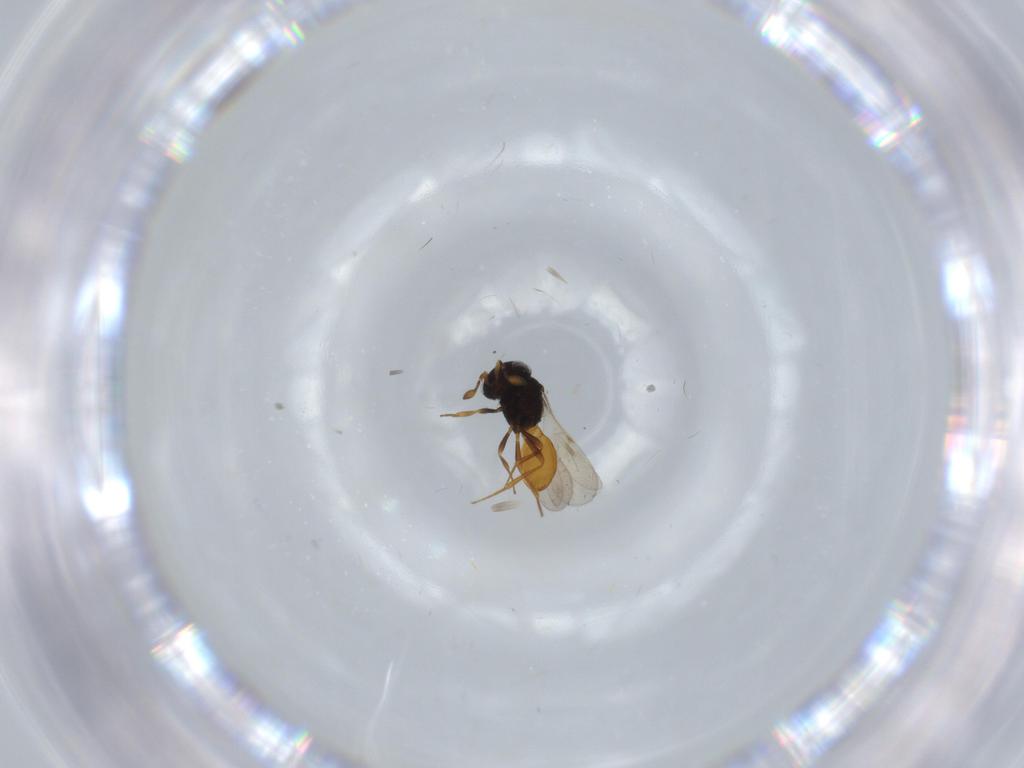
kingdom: Animalia
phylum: Arthropoda
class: Insecta
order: Hymenoptera
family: Scelionidae
